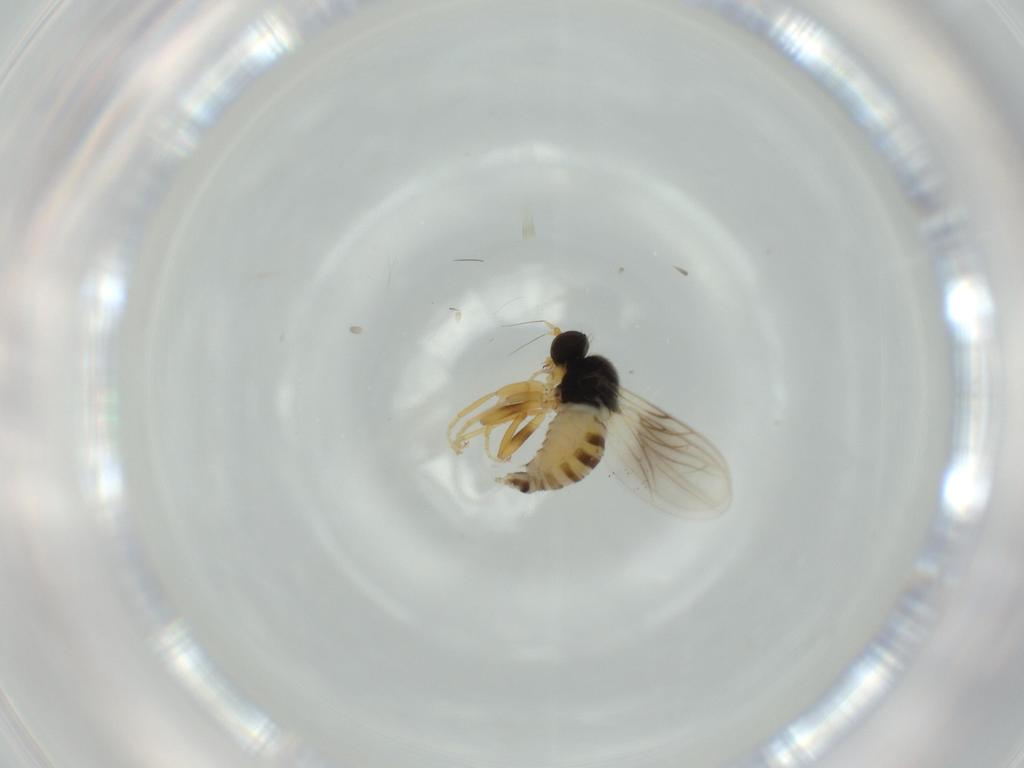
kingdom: Animalia
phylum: Arthropoda
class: Insecta
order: Diptera
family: Hybotidae
